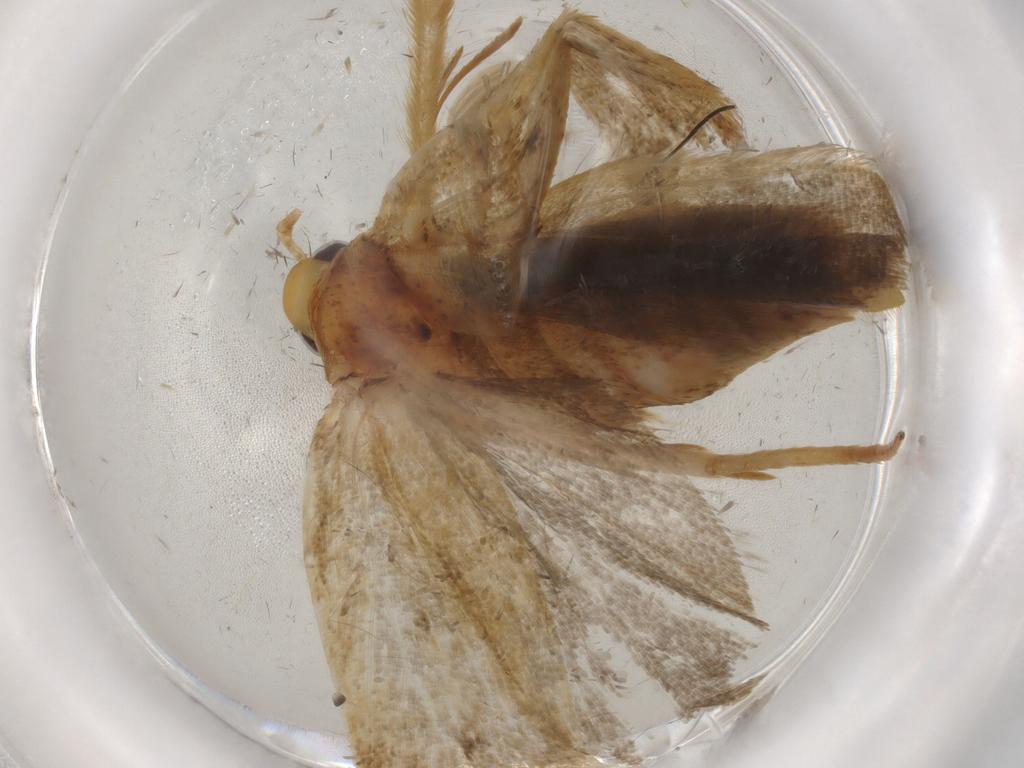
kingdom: Animalia
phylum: Arthropoda
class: Insecta
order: Lepidoptera
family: Autostichidae
